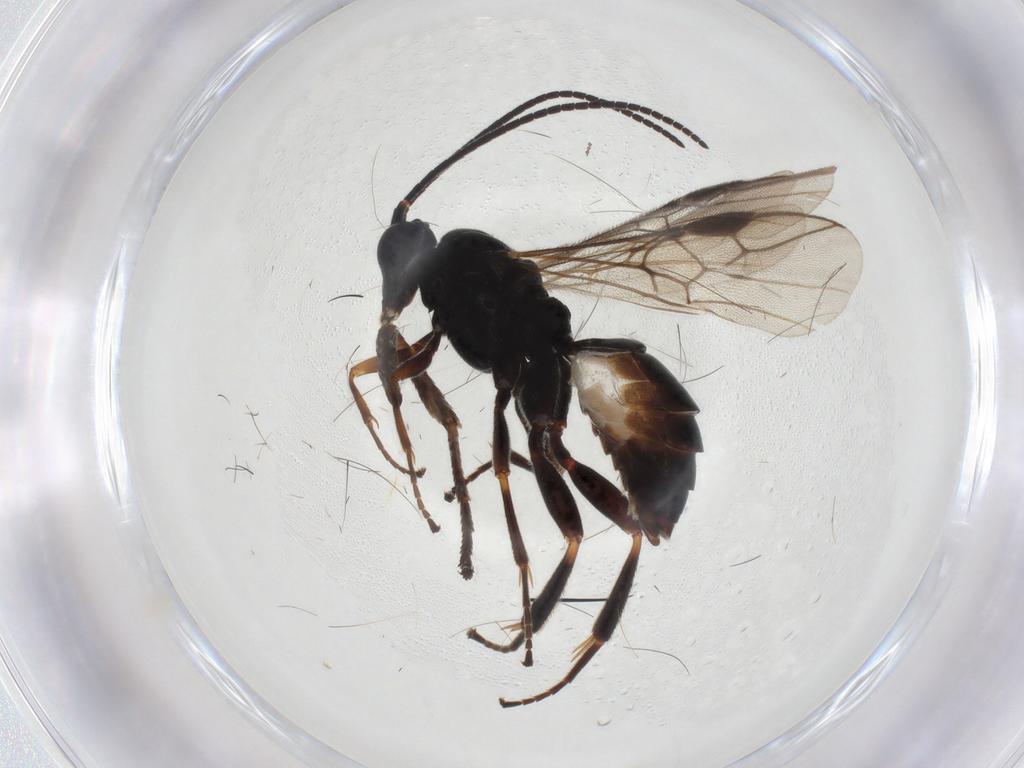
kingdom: Animalia
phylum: Arthropoda
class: Insecta
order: Hymenoptera
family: Braconidae
